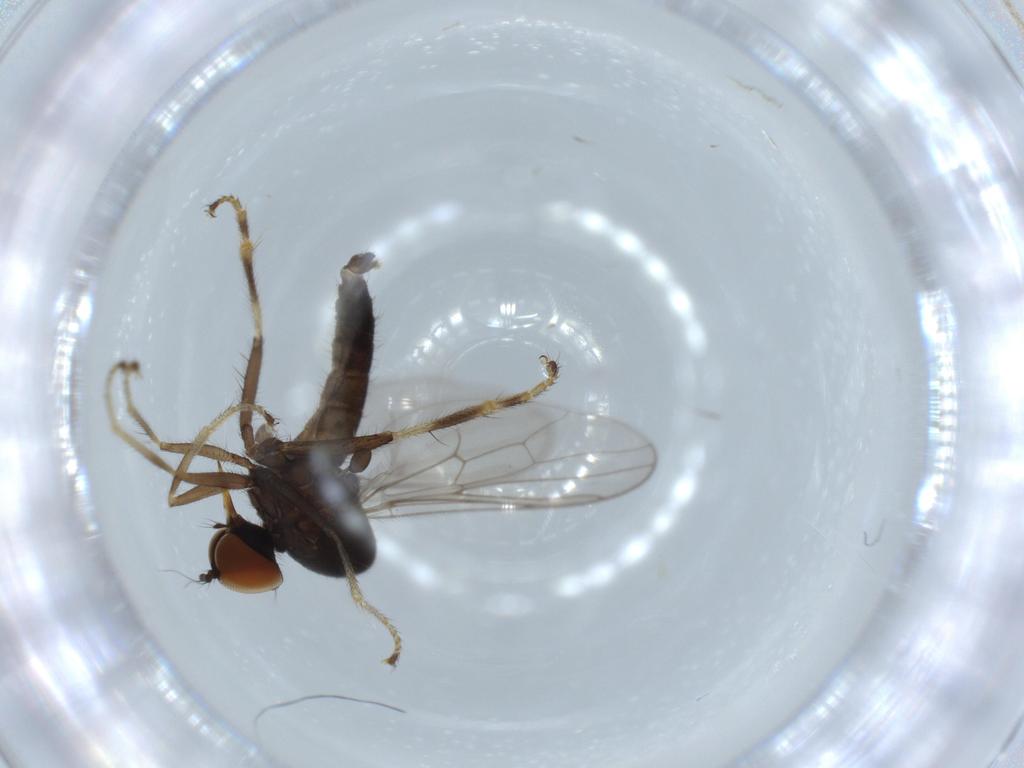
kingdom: Animalia
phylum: Arthropoda
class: Insecta
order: Diptera
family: Hybotidae
